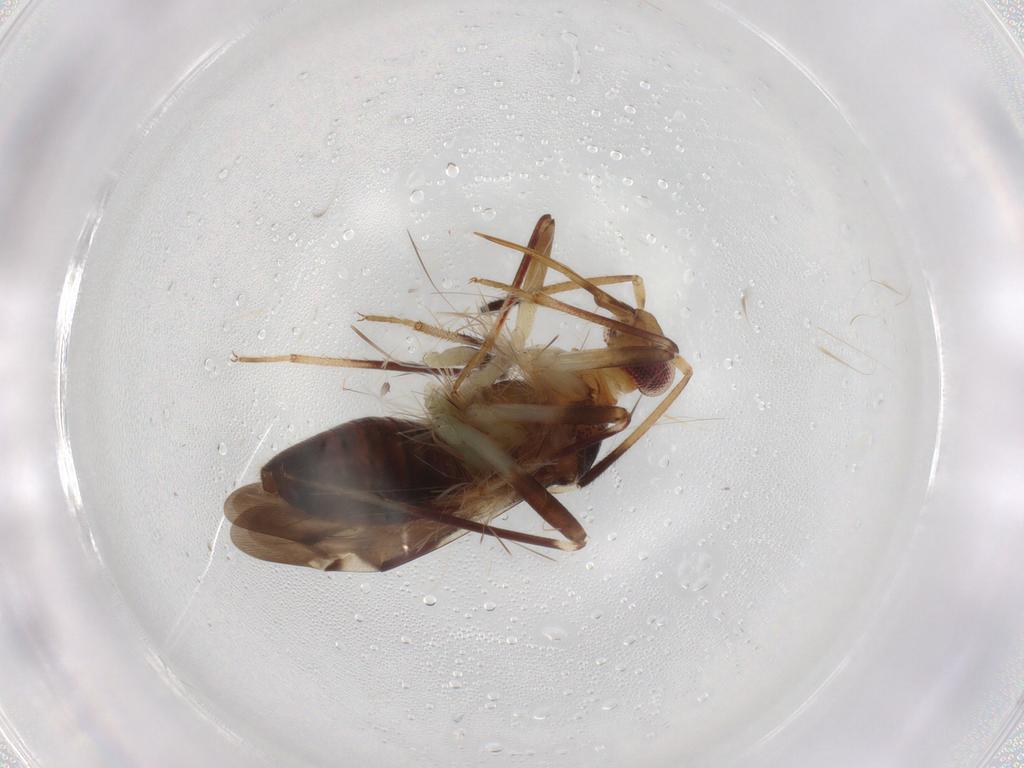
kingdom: Animalia
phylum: Arthropoda
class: Insecta
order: Hemiptera
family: Miridae
